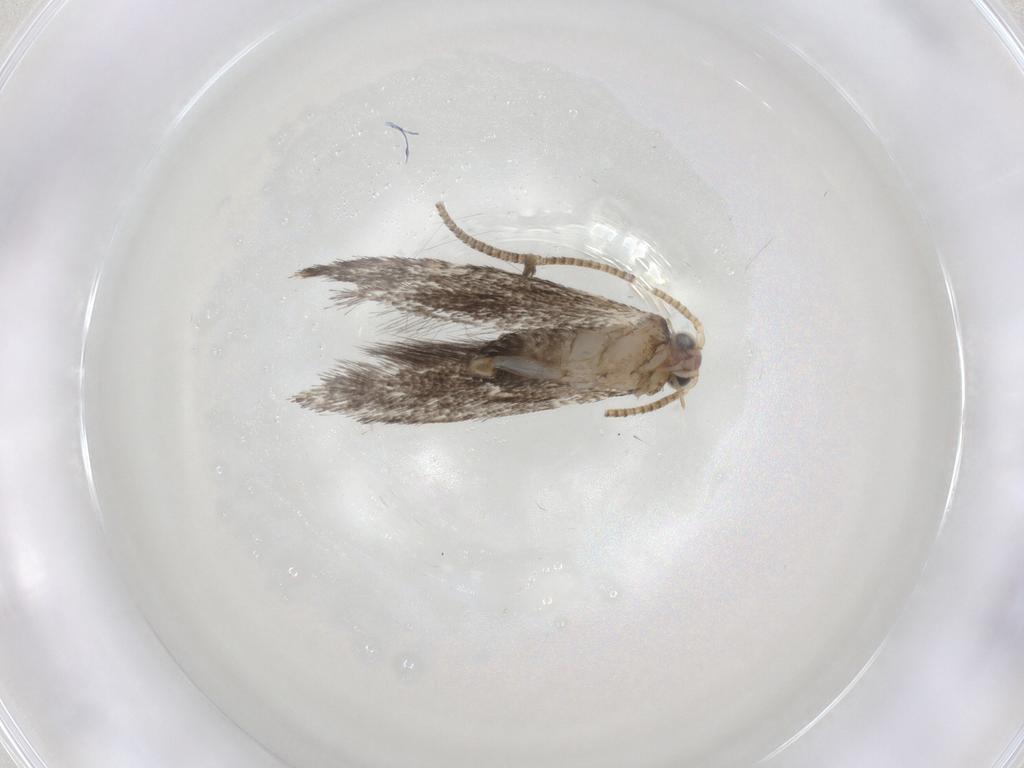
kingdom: Animalia
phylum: Arthropoda
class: Insecta
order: Lepidoptera
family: Tineidae
